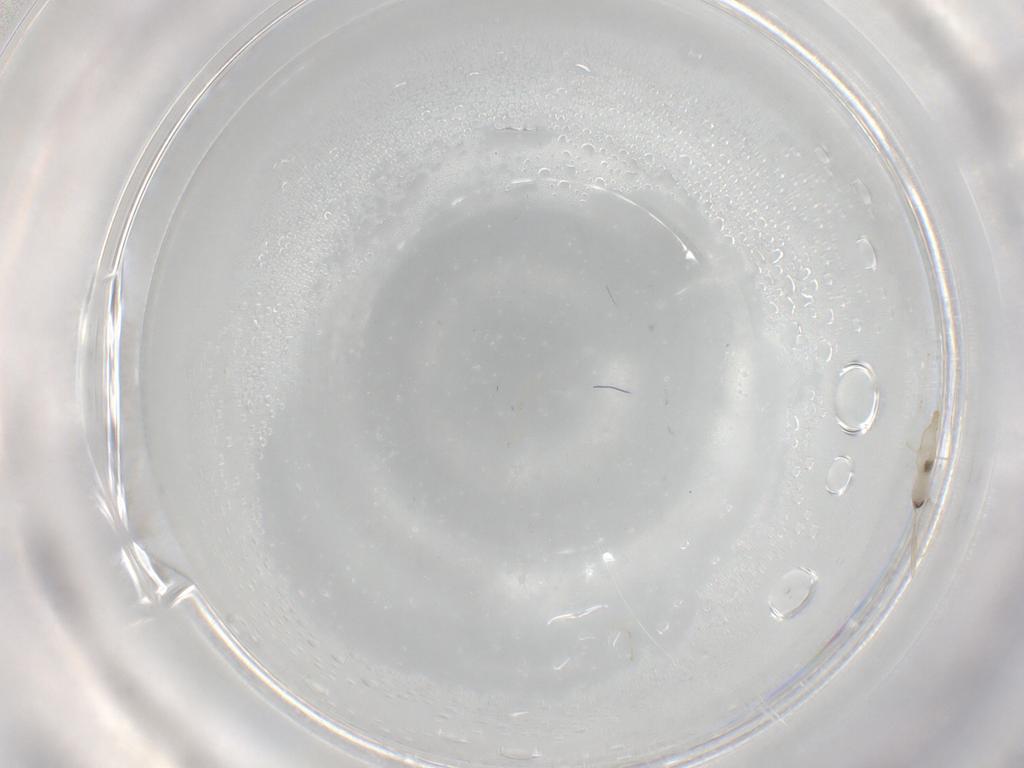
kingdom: Animalia
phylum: Arthropoda
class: Insecta
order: Diptera
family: Cecidomyiidae
